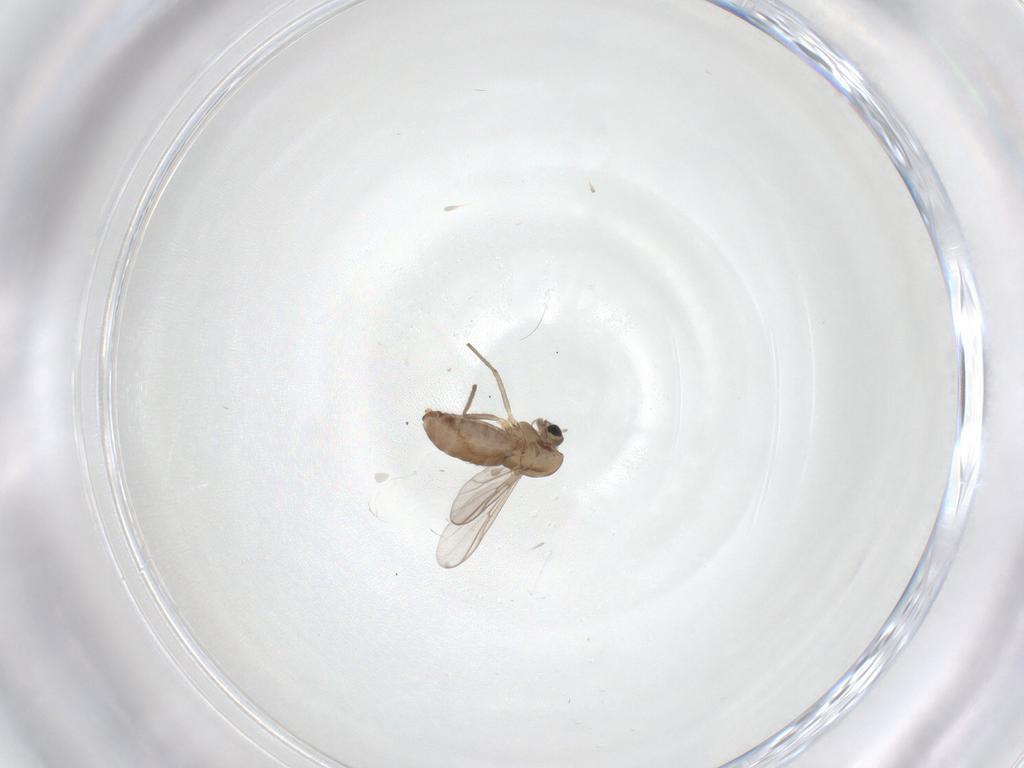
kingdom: Animalia
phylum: Arthropoda
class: Insecta
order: Diptera
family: Chironomidae
